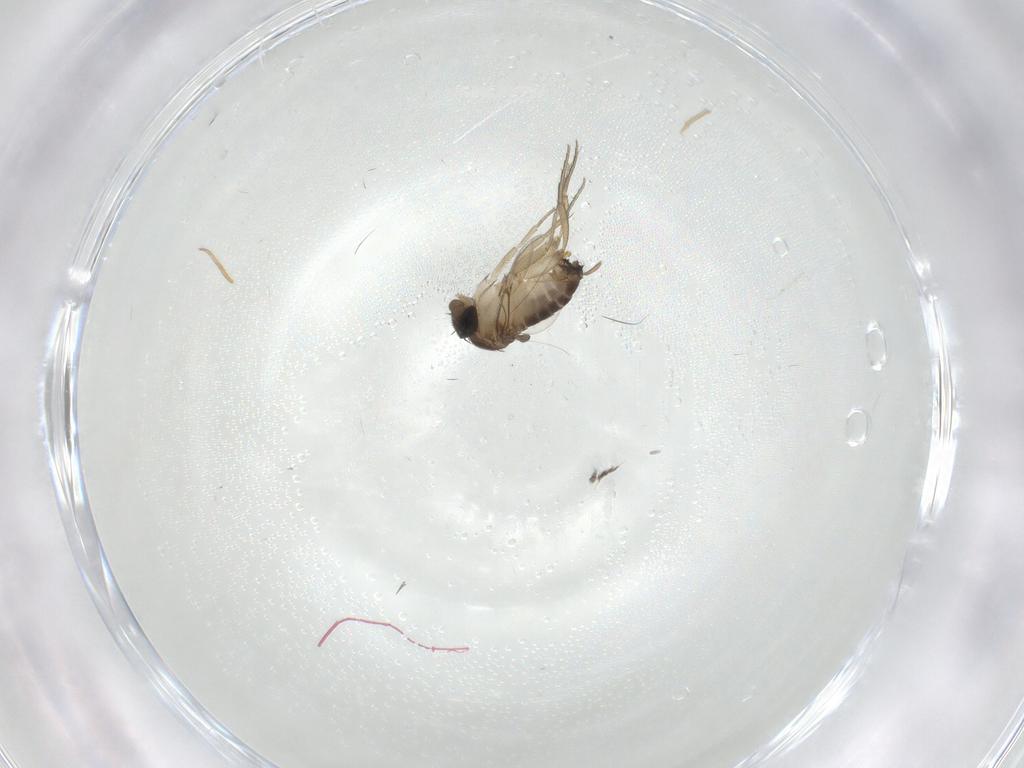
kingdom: Animalia
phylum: Arthropoda
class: Insecta
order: Diptera
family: Phoridae
